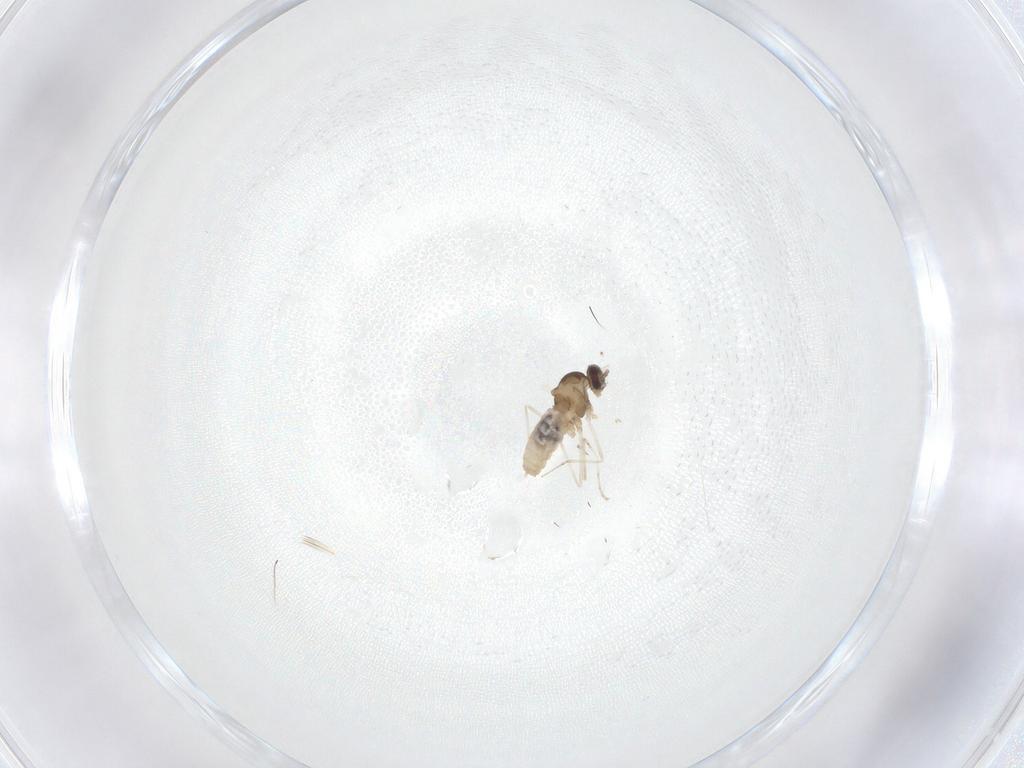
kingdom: Animalia
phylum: Arthropoda
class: Insecta
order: Diptera
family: Cecidomyiidae
